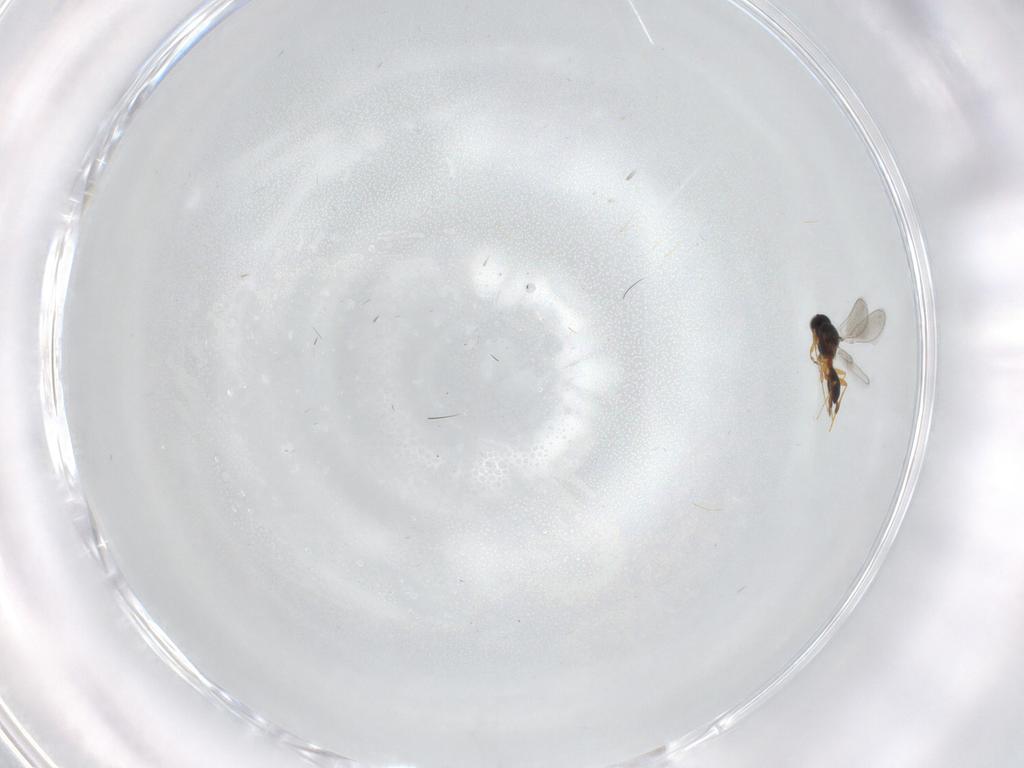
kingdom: Animalia
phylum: Arthropoda
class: Insecta
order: Hymenoptera
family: Platygastridae
